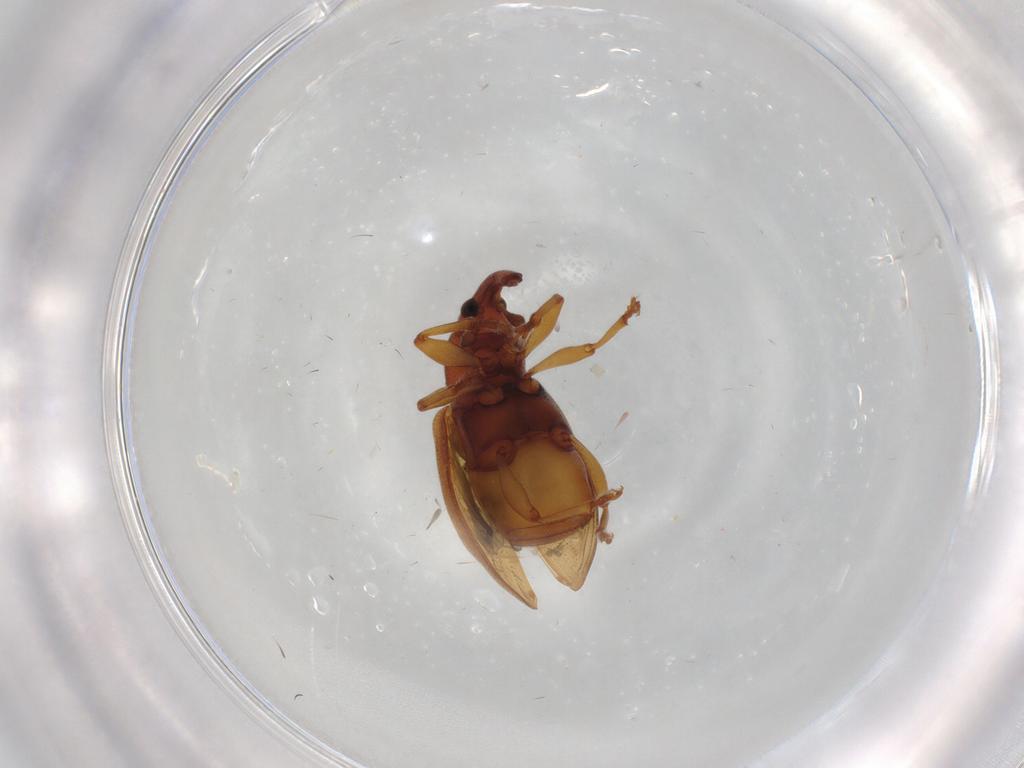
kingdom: Animalia
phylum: Arthropoda
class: Insecta
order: Coleoptera
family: Curculionidae
